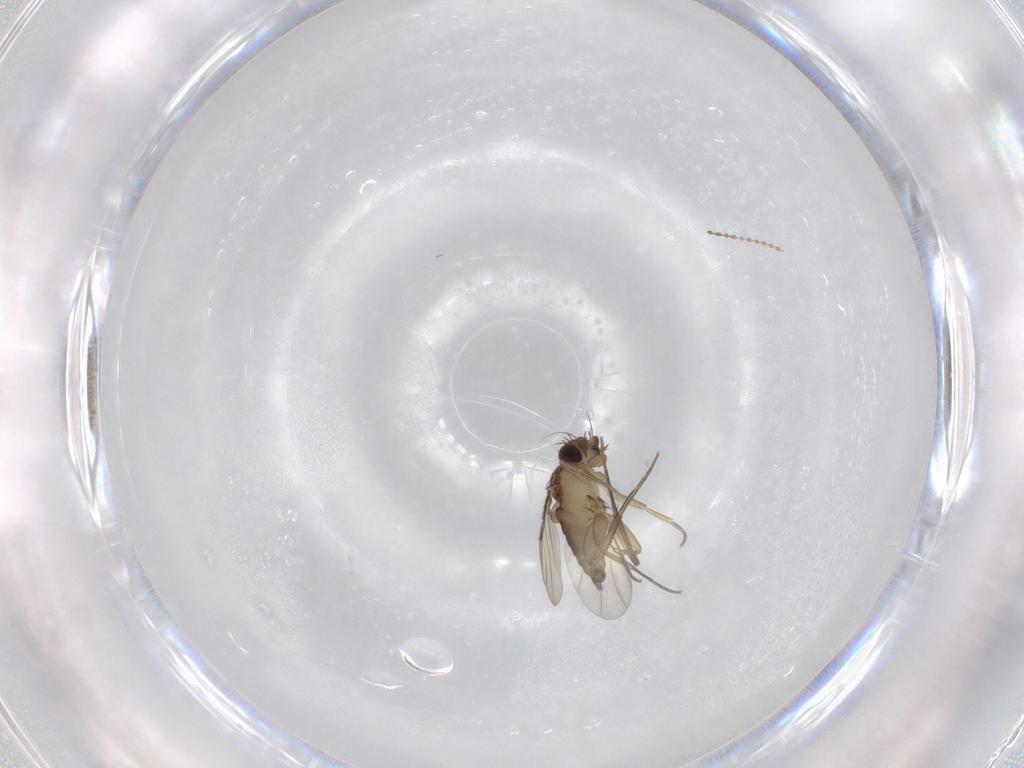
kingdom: Animalia
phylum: Arthropoda
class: Insecta
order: Diptera
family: Phoridae
